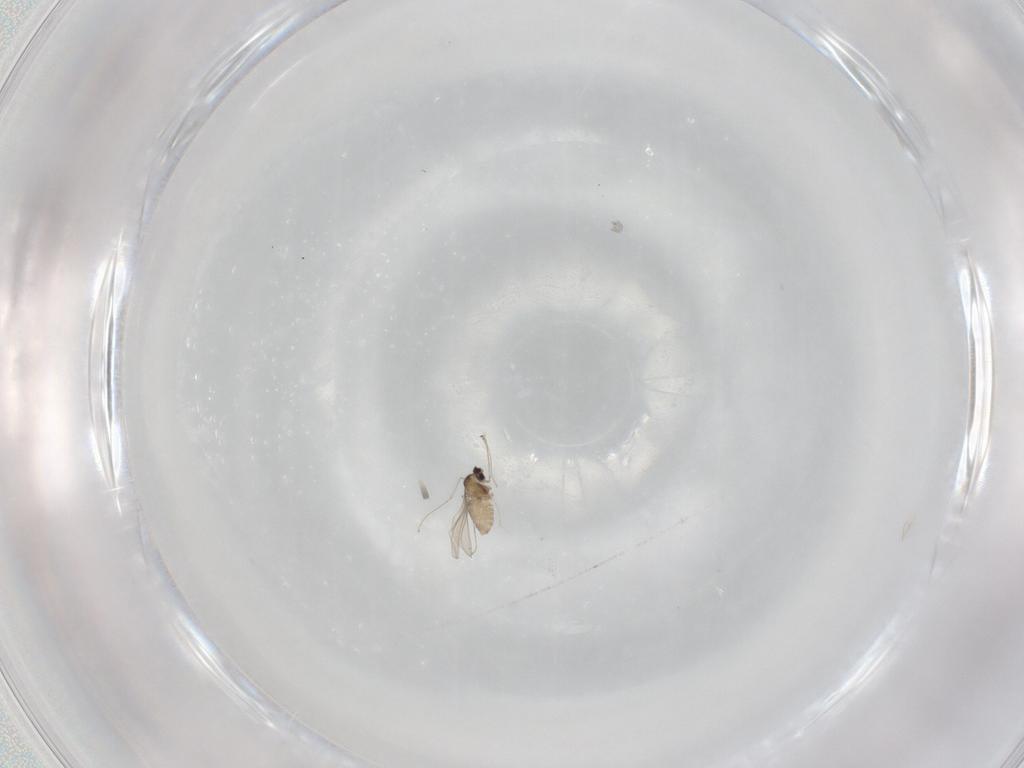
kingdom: Animalia
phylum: Arthropoda
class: Insecta
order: Diptera
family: Cecidomyiidae
